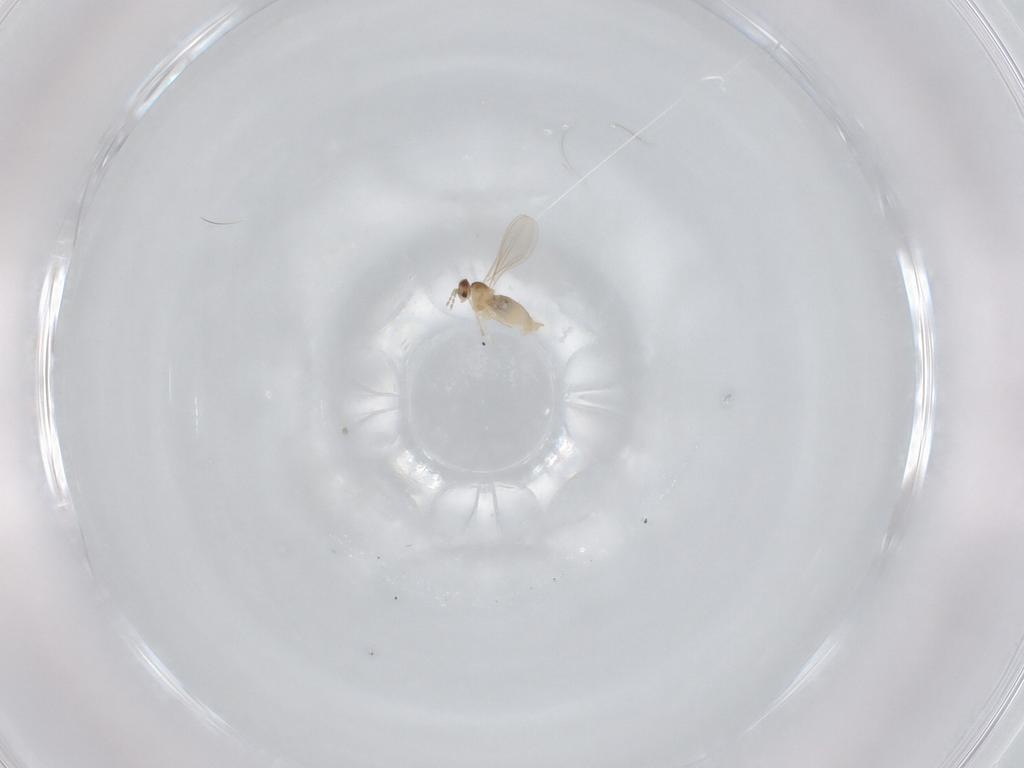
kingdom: Animalia
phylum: Arthropoda
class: Insecta
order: Diptera
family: Cecidomyiidae
